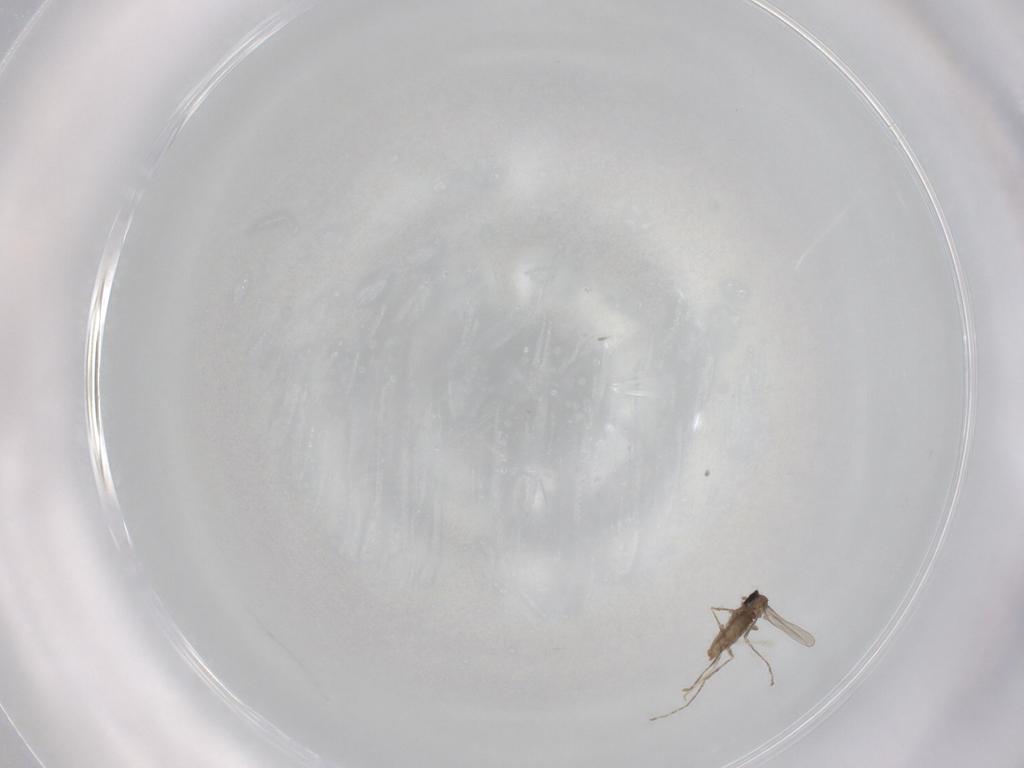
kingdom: Animalia
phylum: Arthropoda
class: Insecta
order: Diptera
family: Cecidomyiidae
